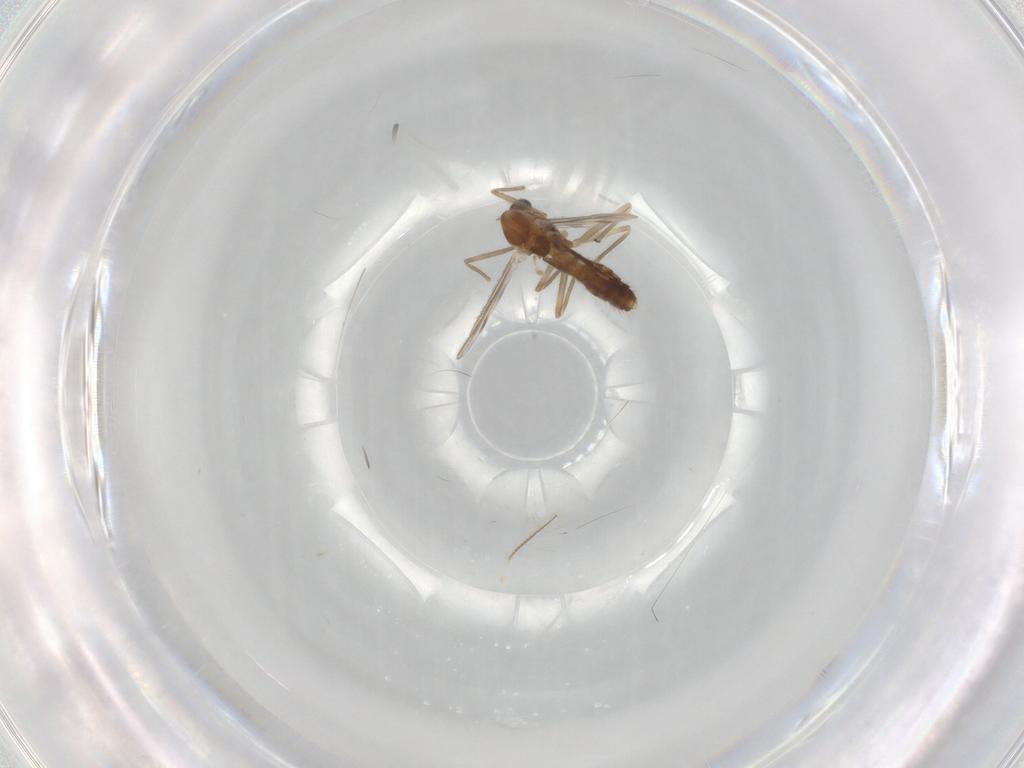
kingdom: Animalia
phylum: Arthropoda
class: Insecta
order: Diptera
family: Chironomidae
